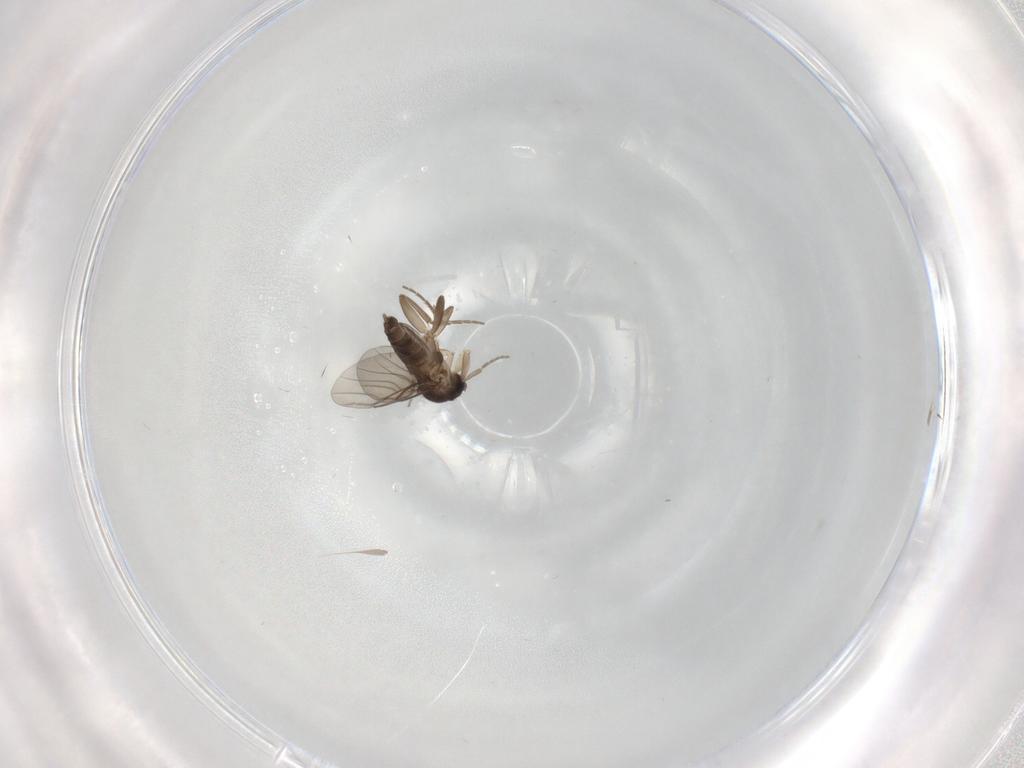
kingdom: Animalia
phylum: Arthropoda
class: Insecta
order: Diptera
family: Phoridae
